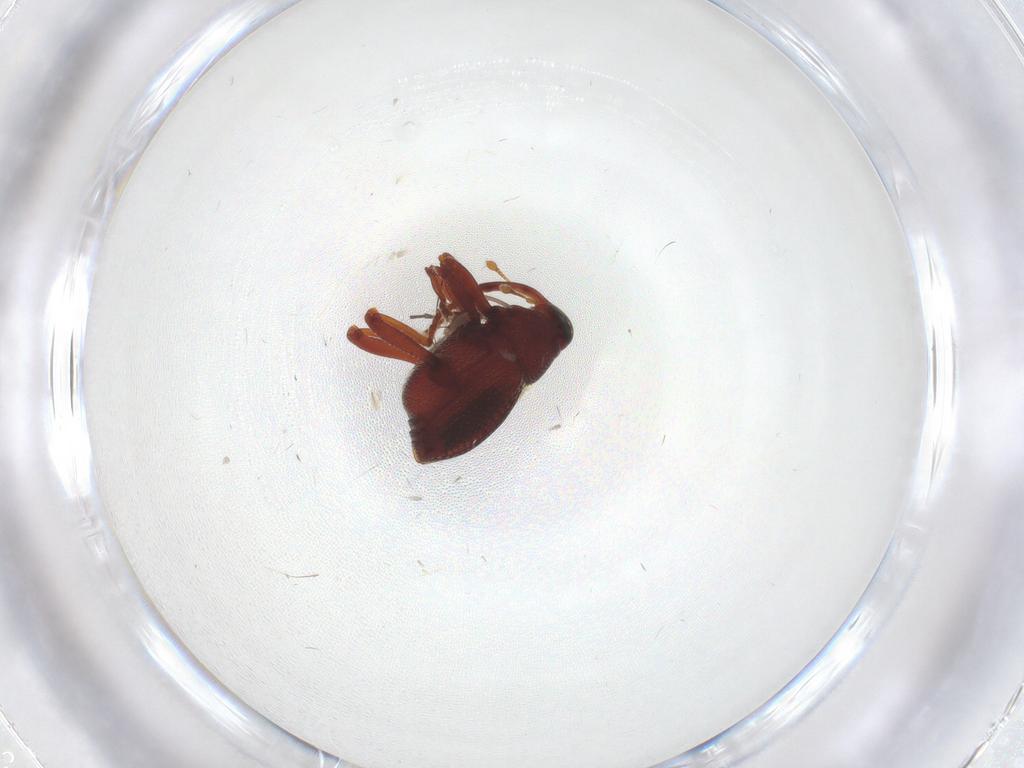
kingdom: Animalia
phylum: Arthropoda
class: Insecta
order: Coleoptera
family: Curculionidae
